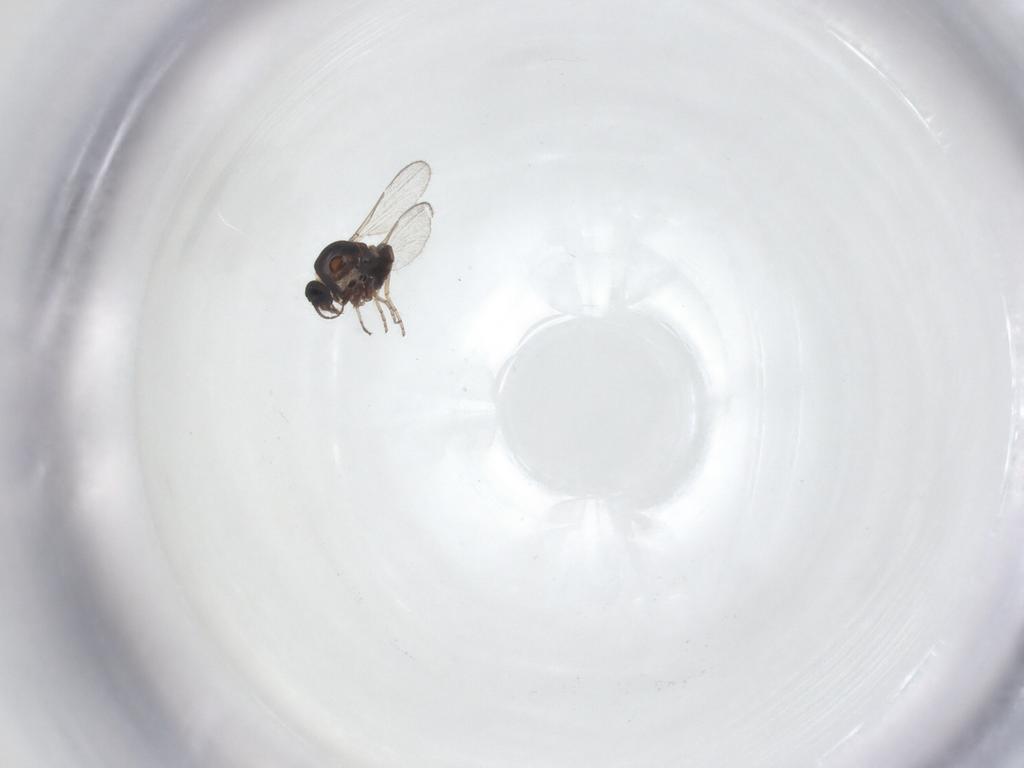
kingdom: Animalia
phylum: Arthropoda
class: Insecta
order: Diptera
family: Ceratopogonidae
